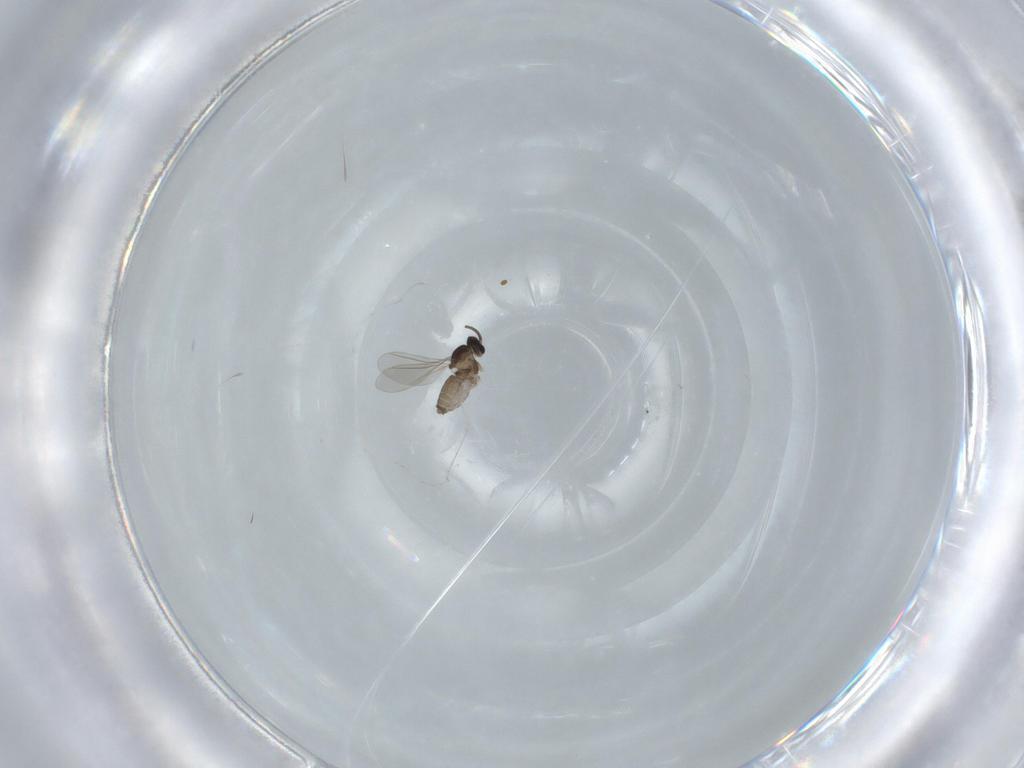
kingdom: Animalia
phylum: Arthropoda
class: Insecta
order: Diptera
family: Cecidomyiidae
